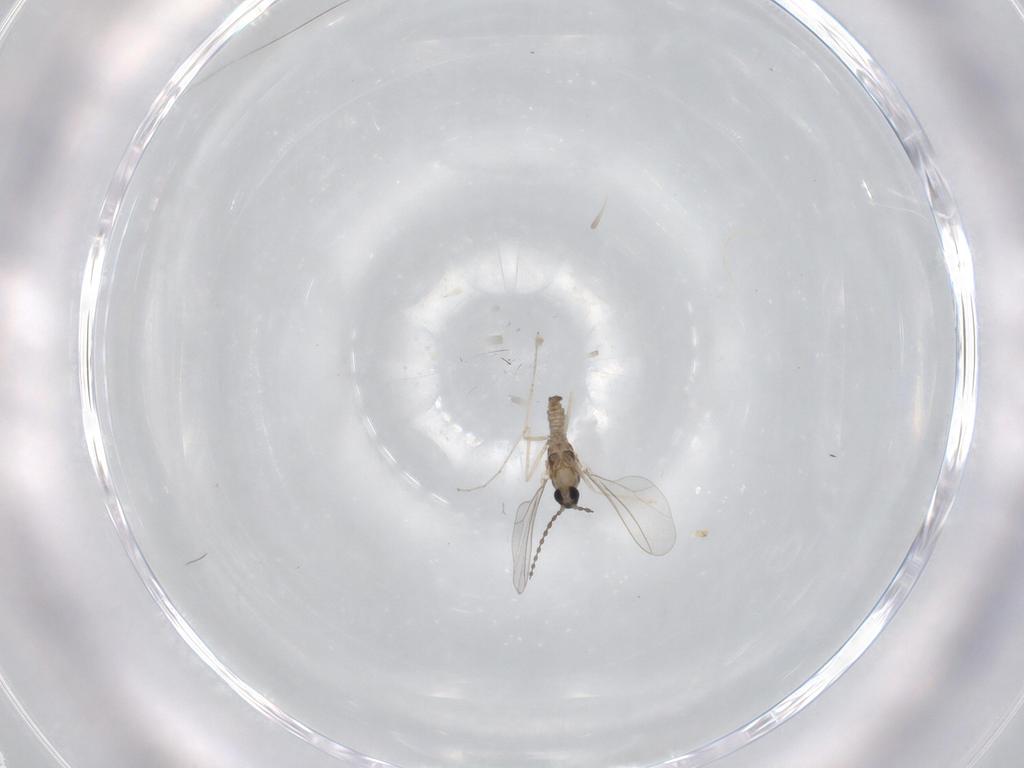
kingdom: Animalia
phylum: Arthropoda
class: Insecta
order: Diptera
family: Cecidomyiidae
